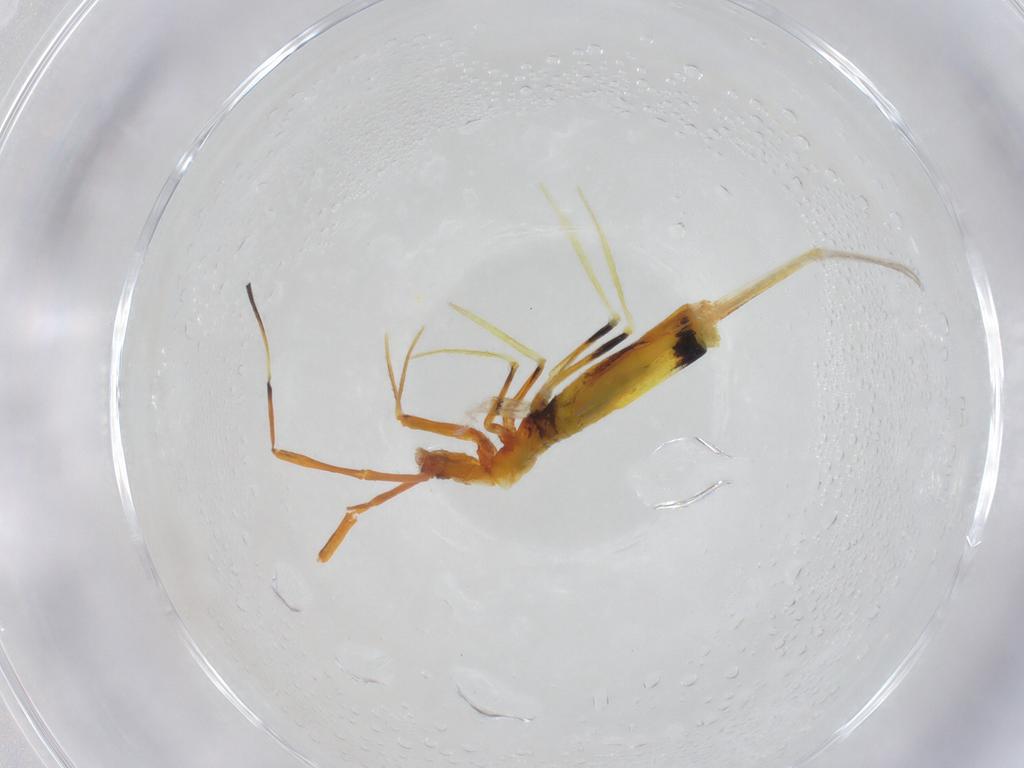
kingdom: Animalia
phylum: Arthropoda
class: Collembola
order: Entomobryomorpha
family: Entomobryidae
